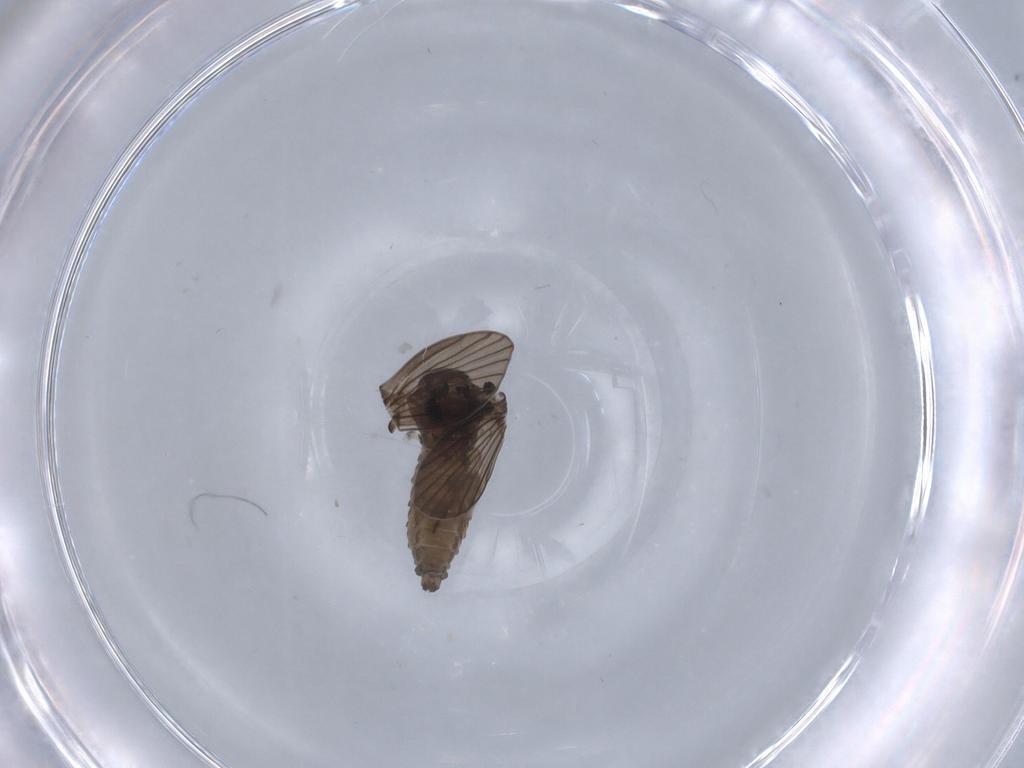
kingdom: Animalia
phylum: Arthropoda
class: Insecta
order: Diptera
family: Psychodidae
